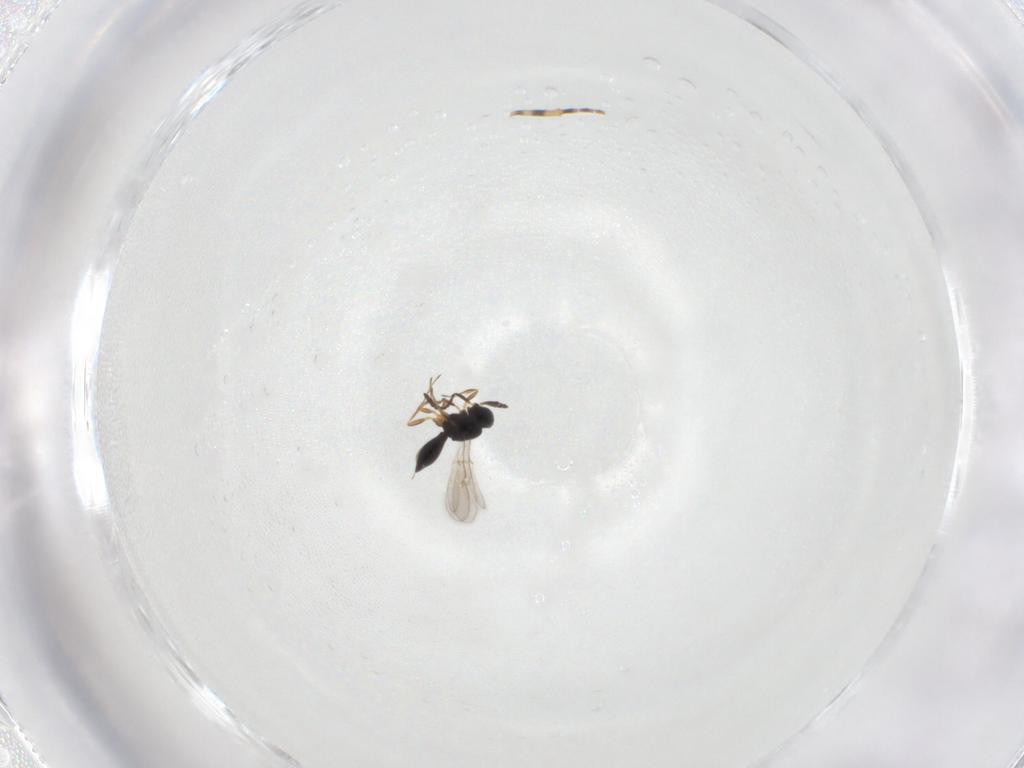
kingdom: Animalia
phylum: Arthropoda
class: Insecta
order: Hymenoptera
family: Scelionidae
